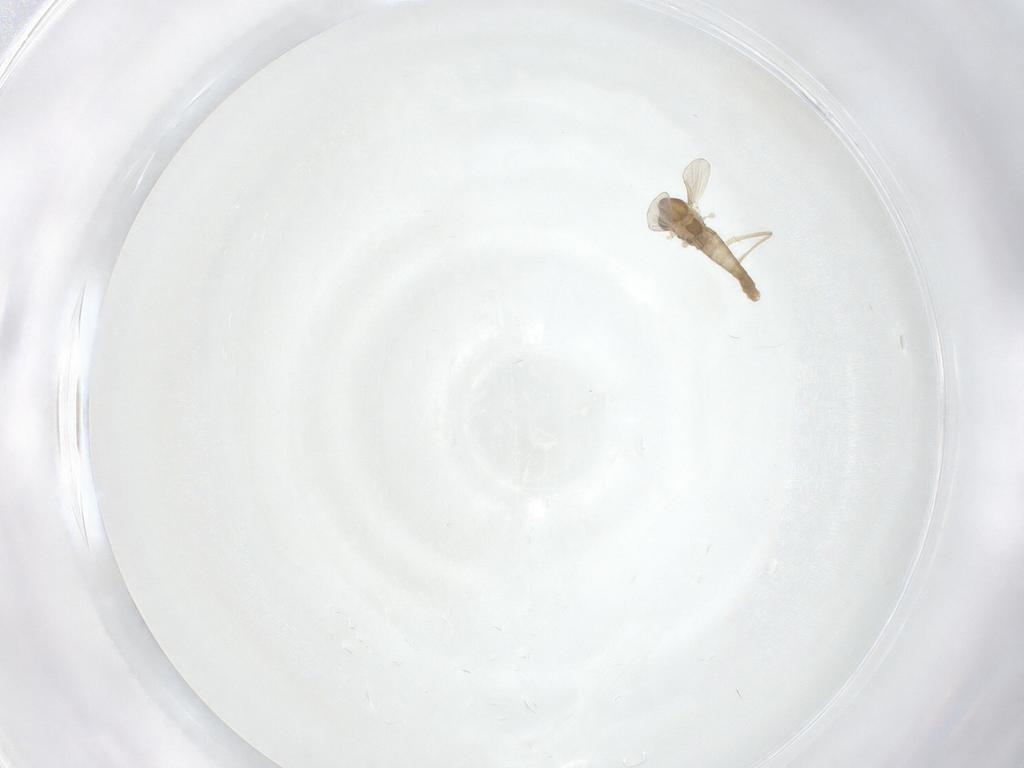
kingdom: Animalia
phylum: Arthropoda
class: Insecta
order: Diptera
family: Chironomidae
